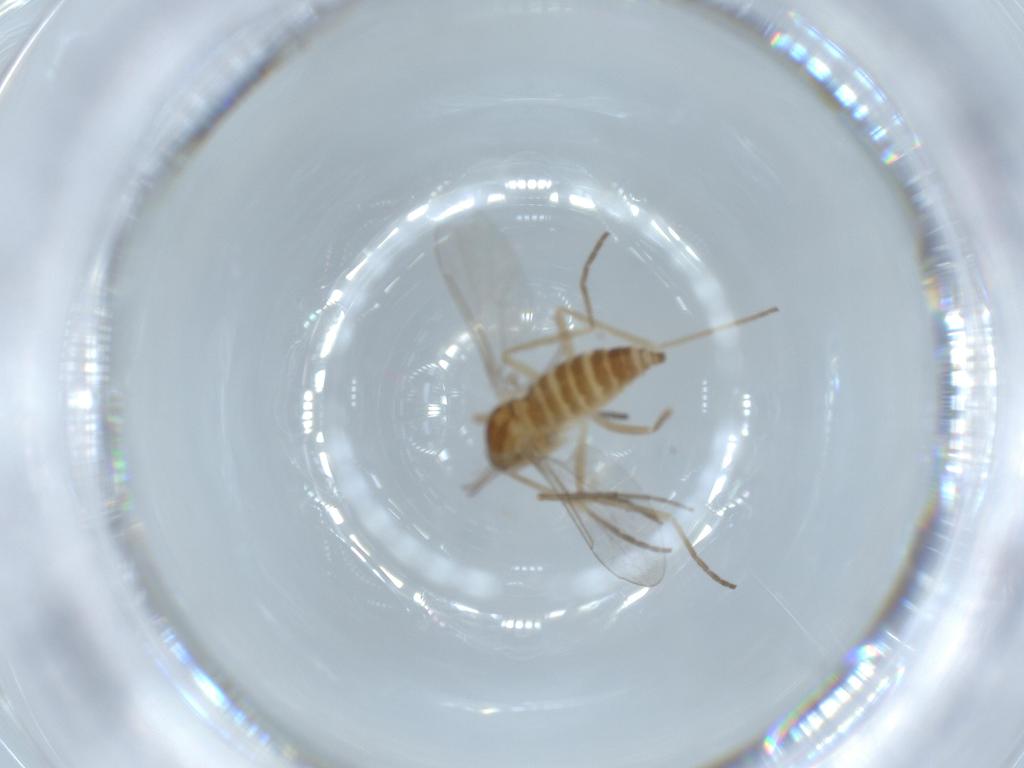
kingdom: Animalia
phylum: Arthropoda
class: Insecta
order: Diptera
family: Cecidomyiidae
